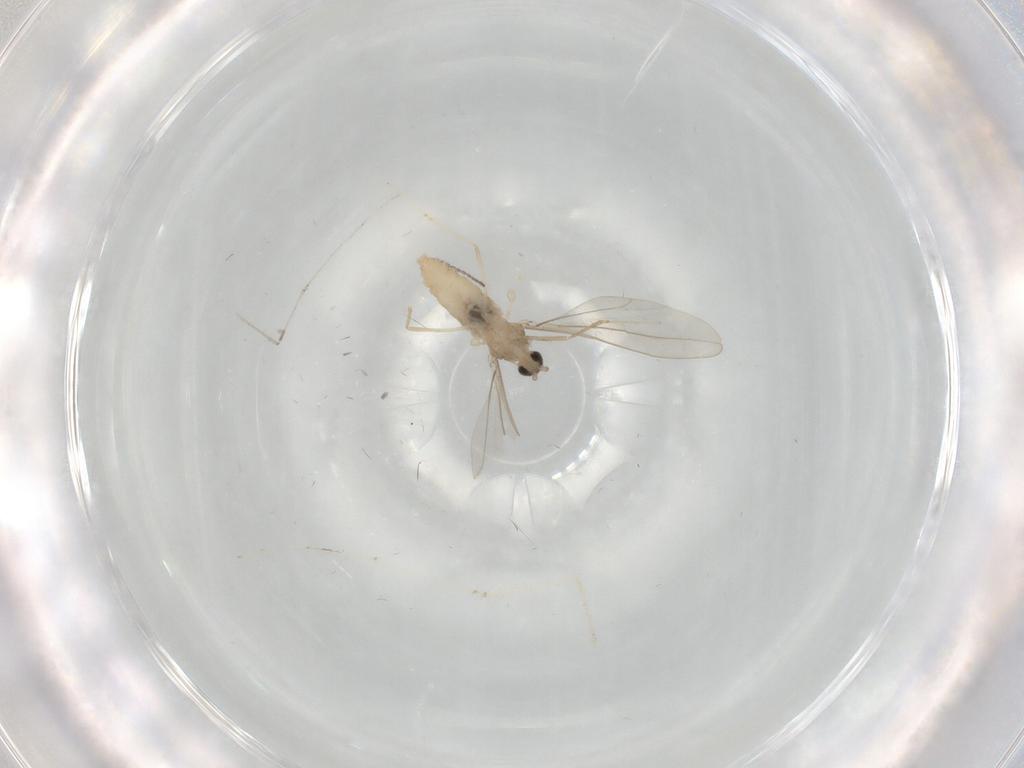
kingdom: Animalia
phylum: Arthropoda
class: Insecta
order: Diptera
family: Cecidomyiidae
